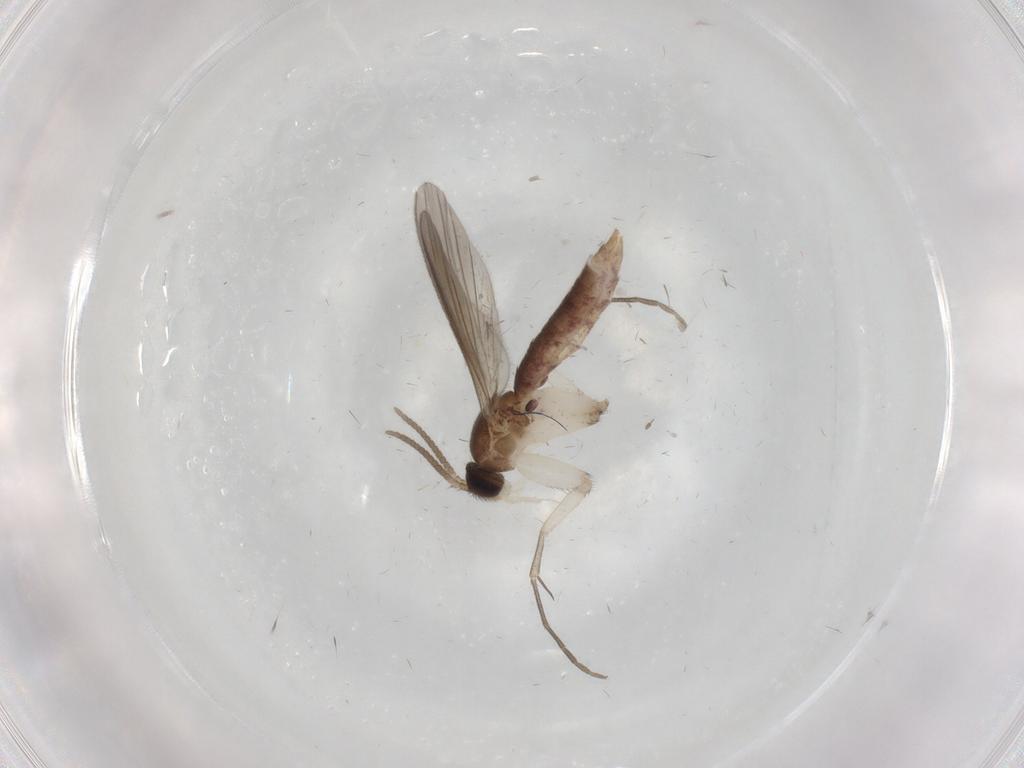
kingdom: Animalia
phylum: Arthropoda
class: Insecta
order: Diptera
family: Mycetophilidae
